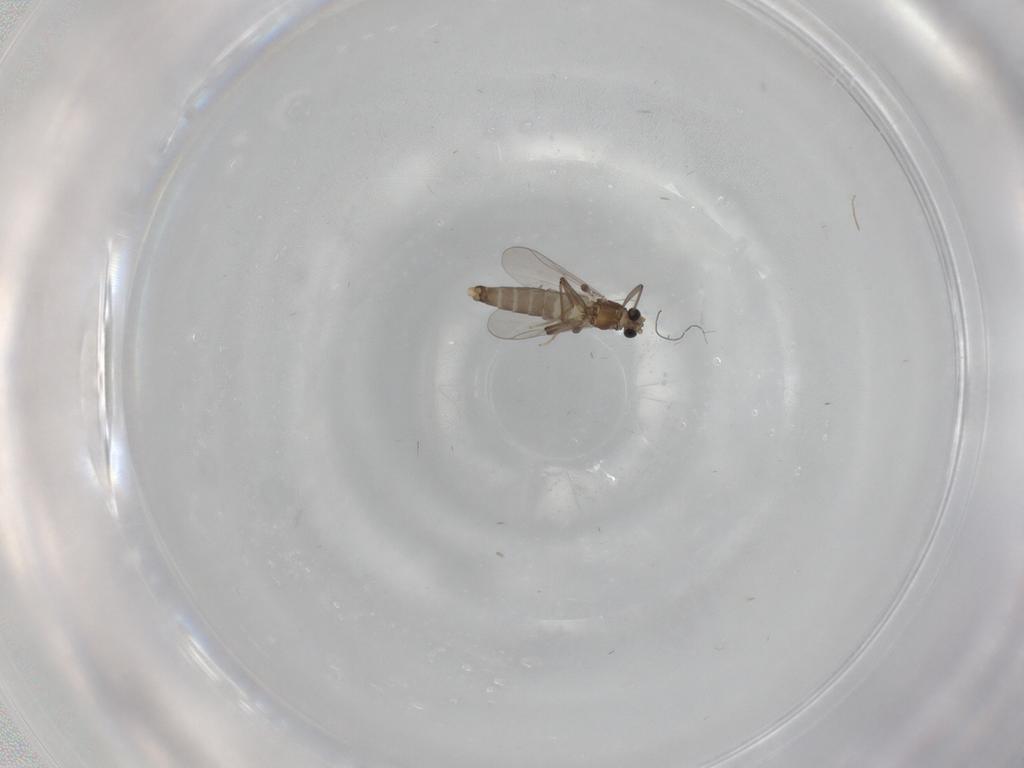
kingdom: Animalia
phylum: Arthropoda
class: Insecta
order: Diptera
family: Chironomidae
